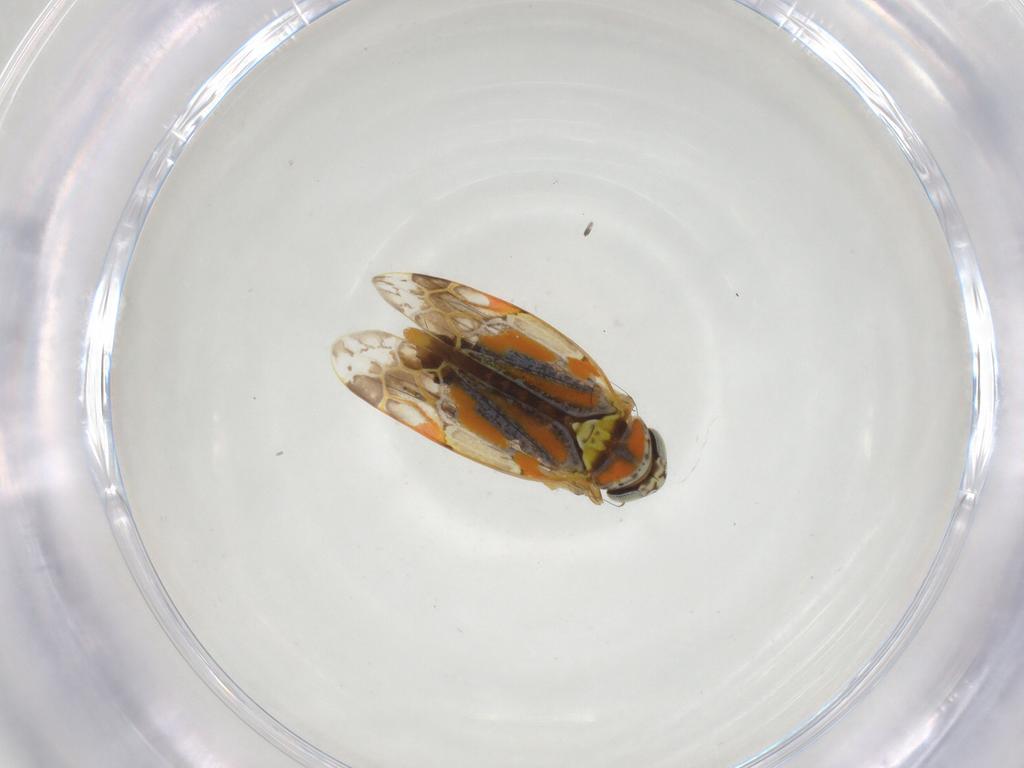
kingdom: Animalia
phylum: Arthropoda
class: Insecta
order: Hemiptera
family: Cicadellidae
